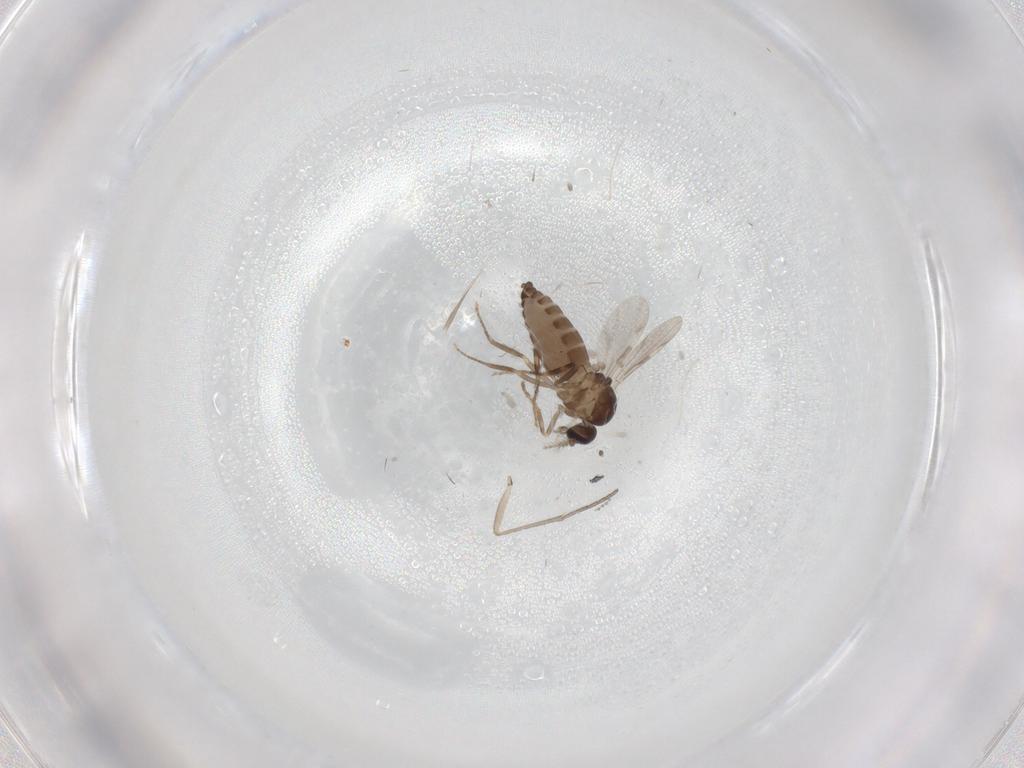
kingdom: Animalia
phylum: Arthropoda
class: Insecta
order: Diptera
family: Ceratopogonidae
